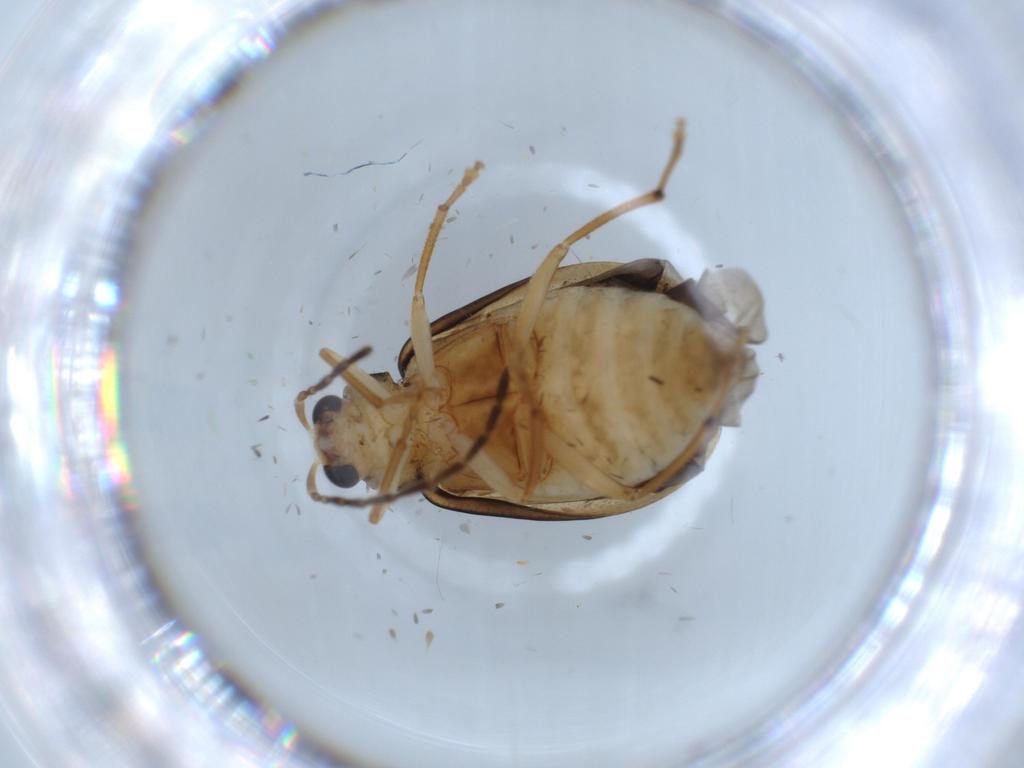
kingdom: Animalia
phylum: Arthropoda
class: Insecta
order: Coleoptera
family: Chrysomelidae
